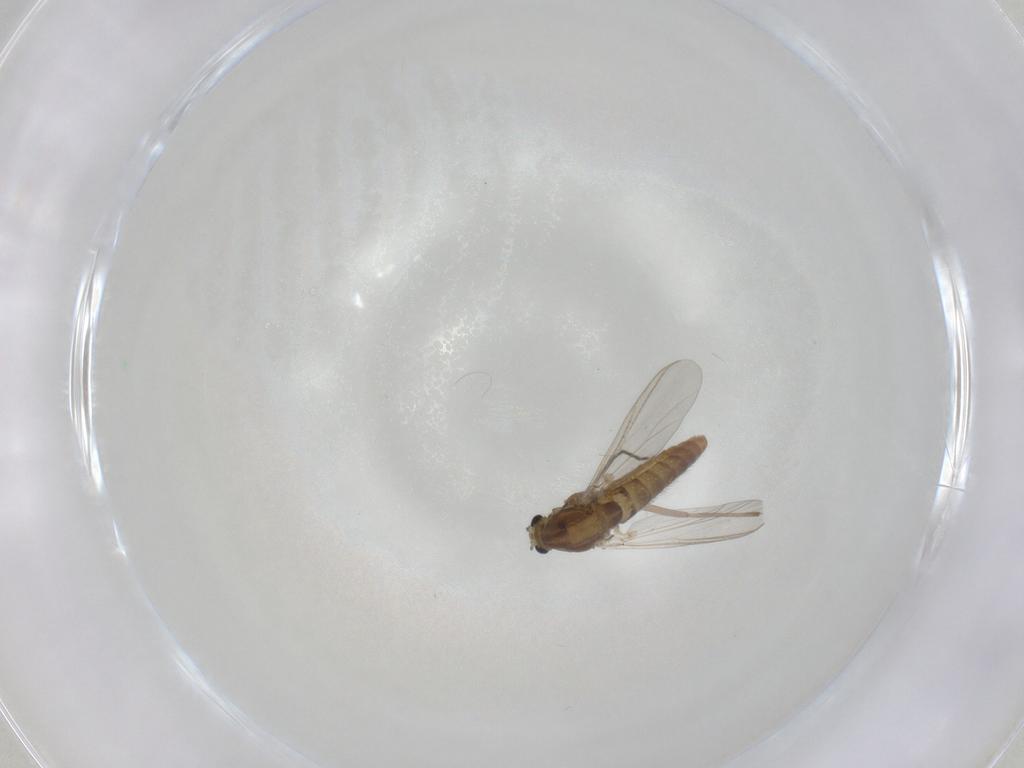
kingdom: Animalia
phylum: Arthropoda
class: Insecta
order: Diptera
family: Chironomidae
